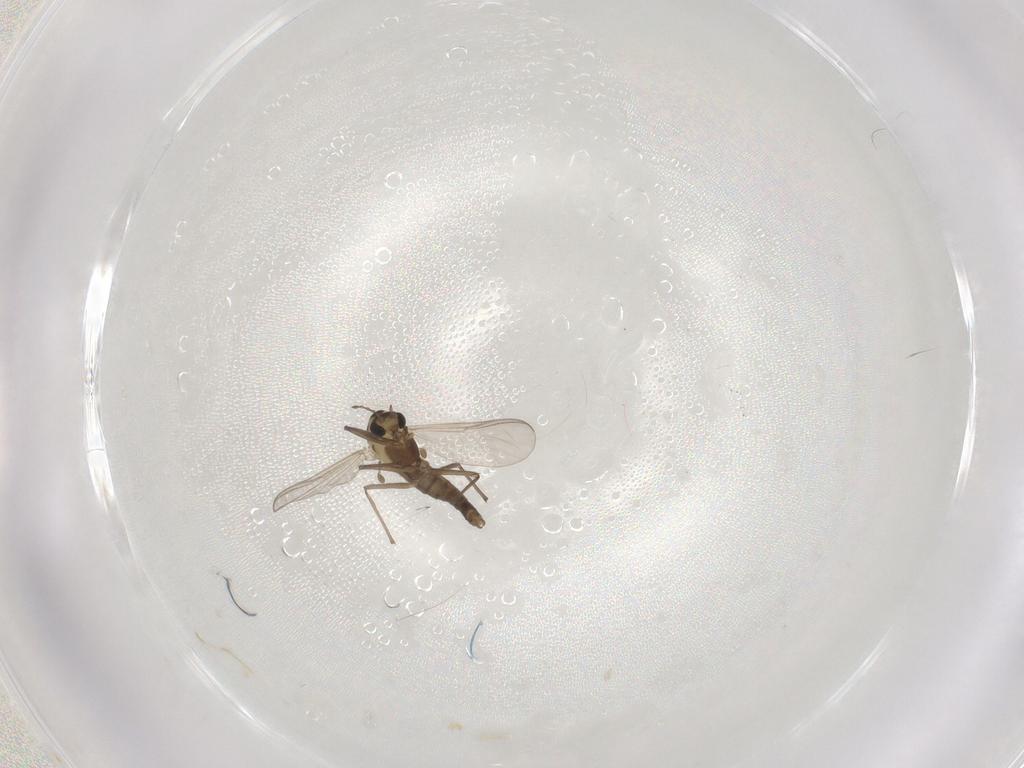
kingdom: Animalia
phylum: Arthropoda
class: Insecta
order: Diptera
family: Chironomidae
